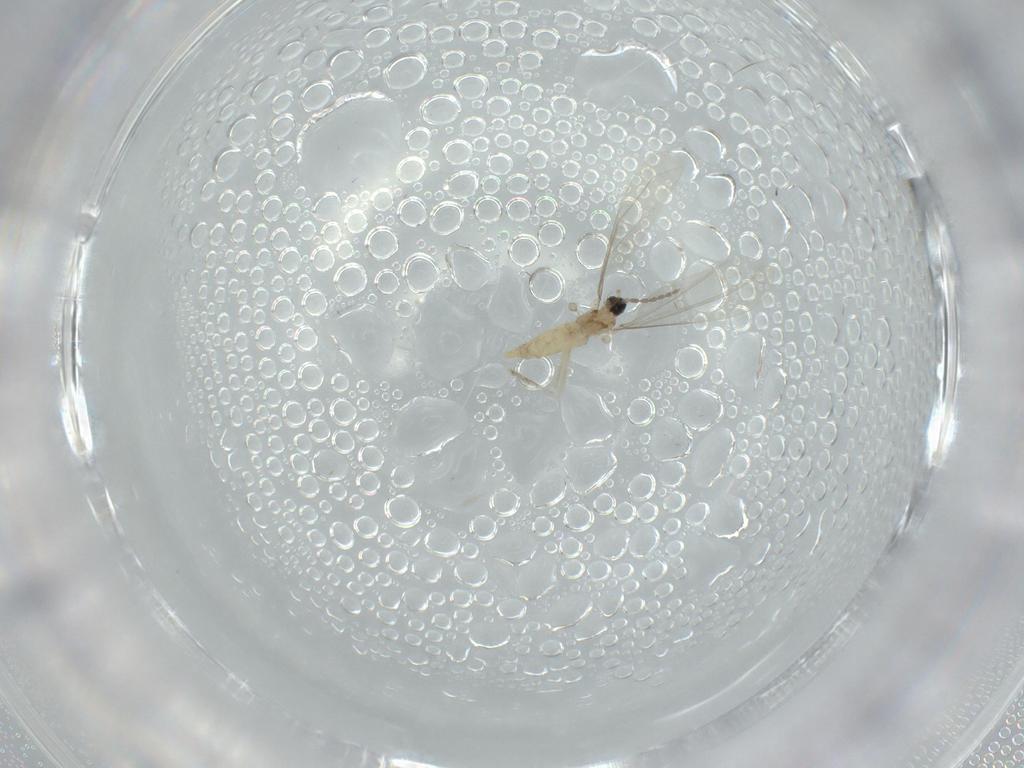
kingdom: Animalia
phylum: Arthropoda
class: Insecta
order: Diptera
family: Cecidomyiidae
